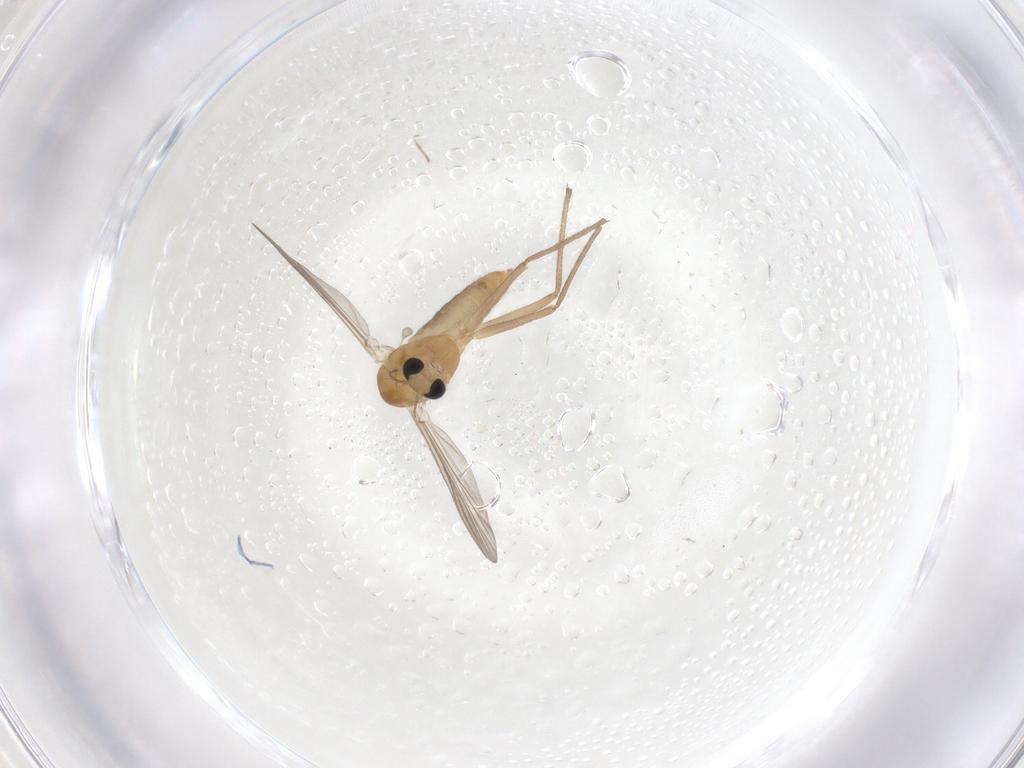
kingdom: Animalia
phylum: Arthropoda
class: Insecta
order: Diptera
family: Chironomidae
